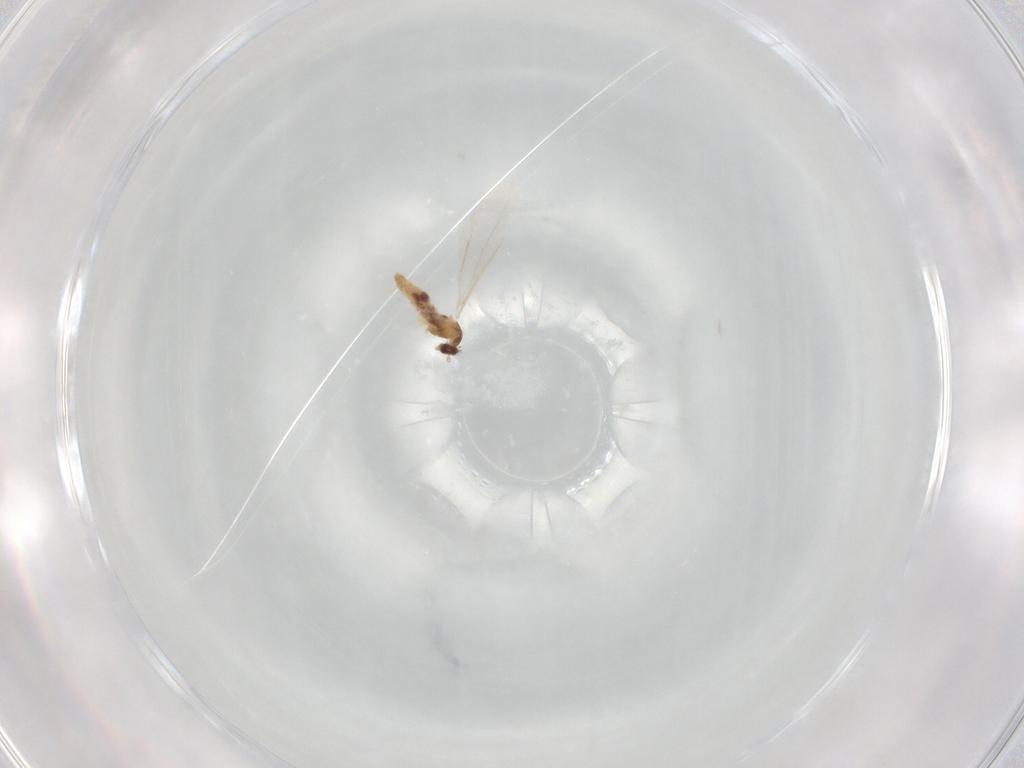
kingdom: Animalia
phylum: Arthropoda
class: Insecta
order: Diptera
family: Cecidomyiidae
